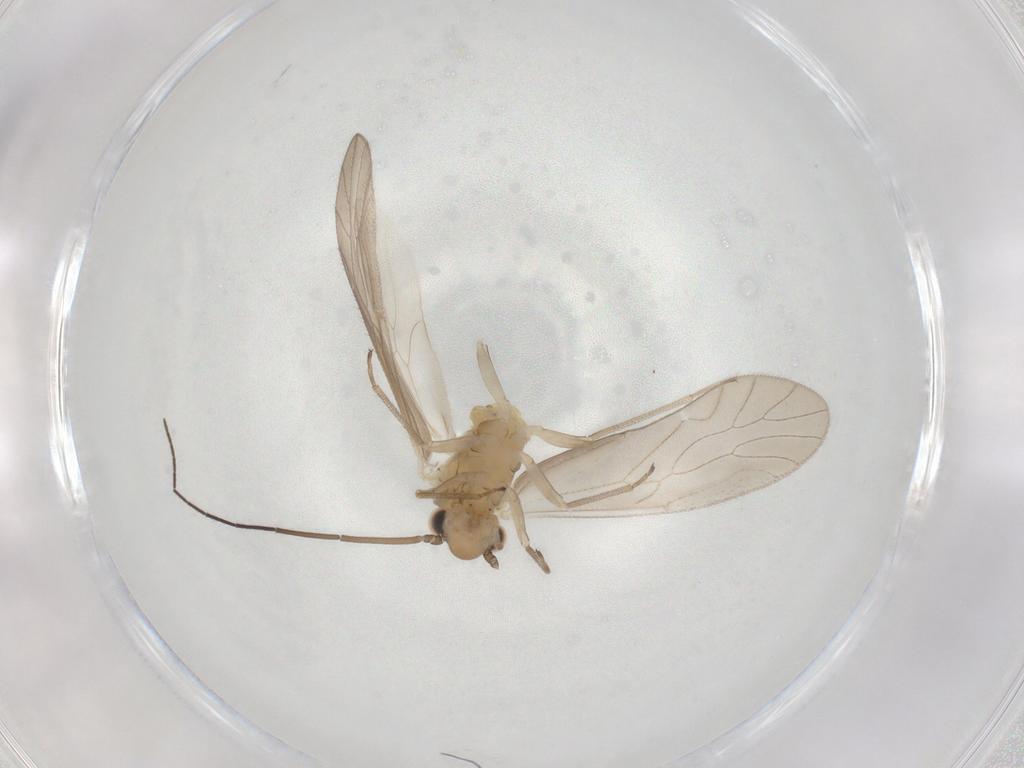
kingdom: Animalia
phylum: Arthropoda
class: Insecta
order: Psocodea
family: Caeciliusidae
